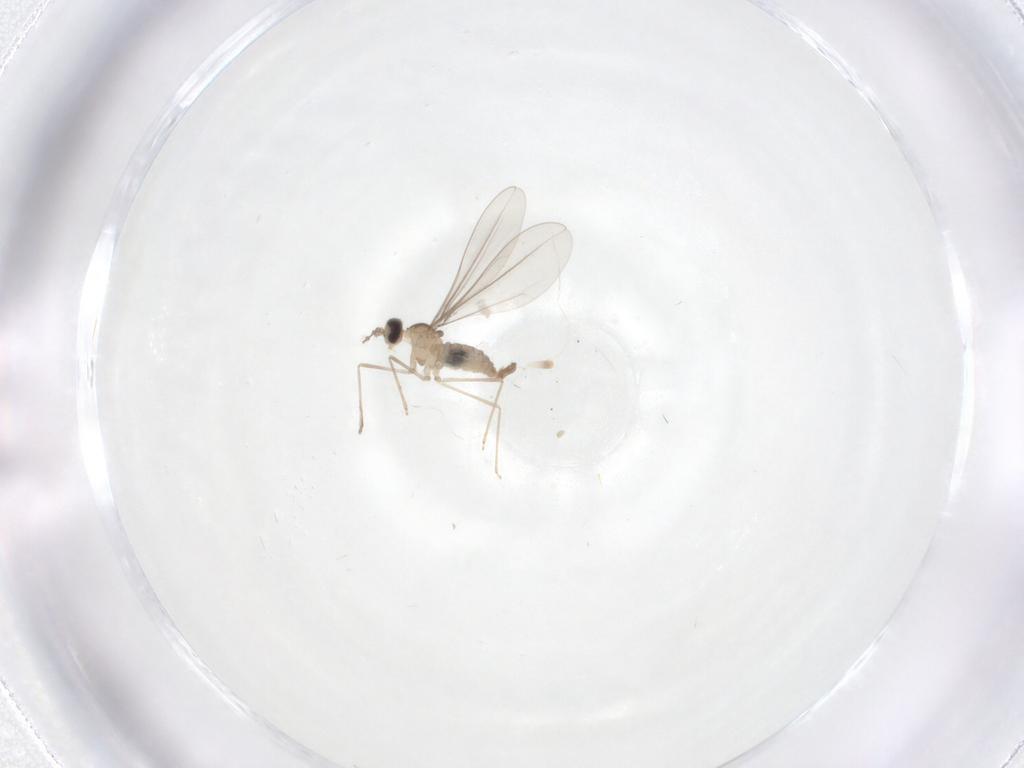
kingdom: Animalia
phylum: Arthropoda
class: Insecta
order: Diptera
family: Cecidomyiidae
